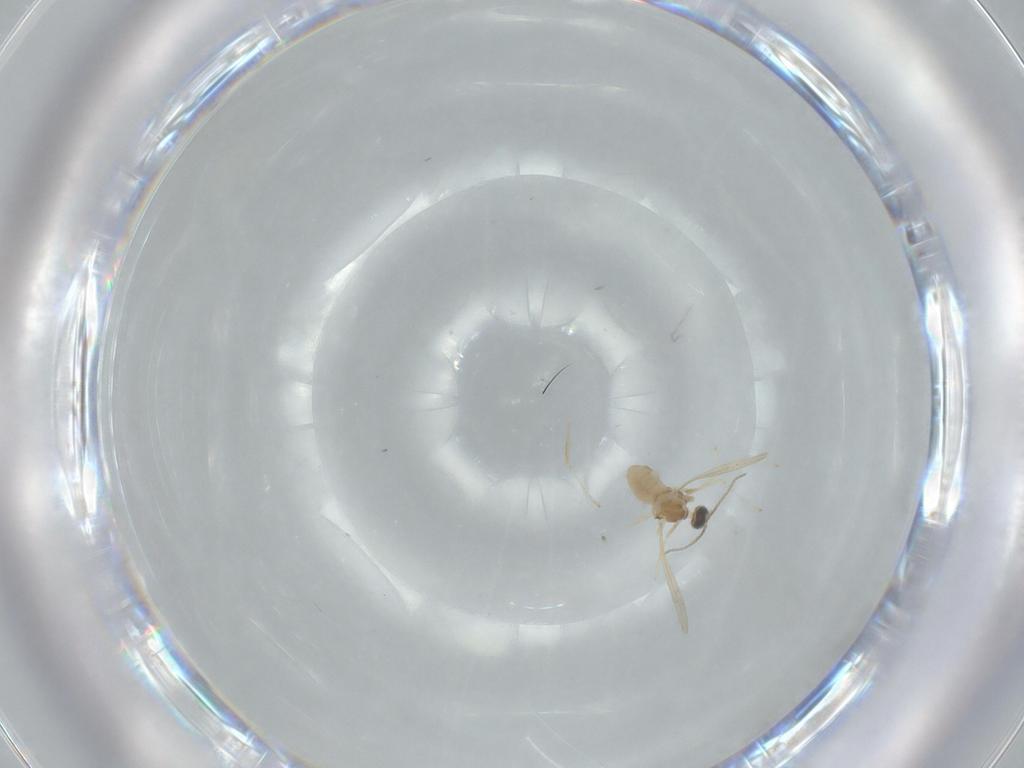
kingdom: Animalia
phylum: Arthropoda
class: Insecta
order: Diptera
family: Cecidomyiidae
